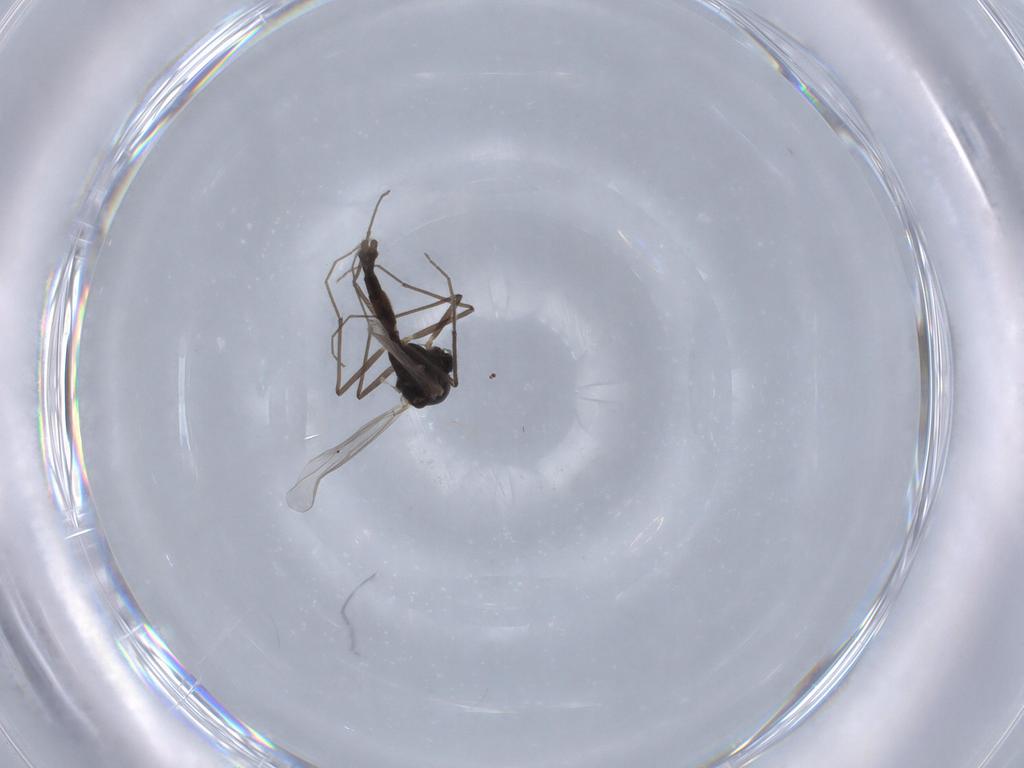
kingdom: Animalia
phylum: Arthropoda
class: Insecta
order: Diptera
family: Chironomidae
